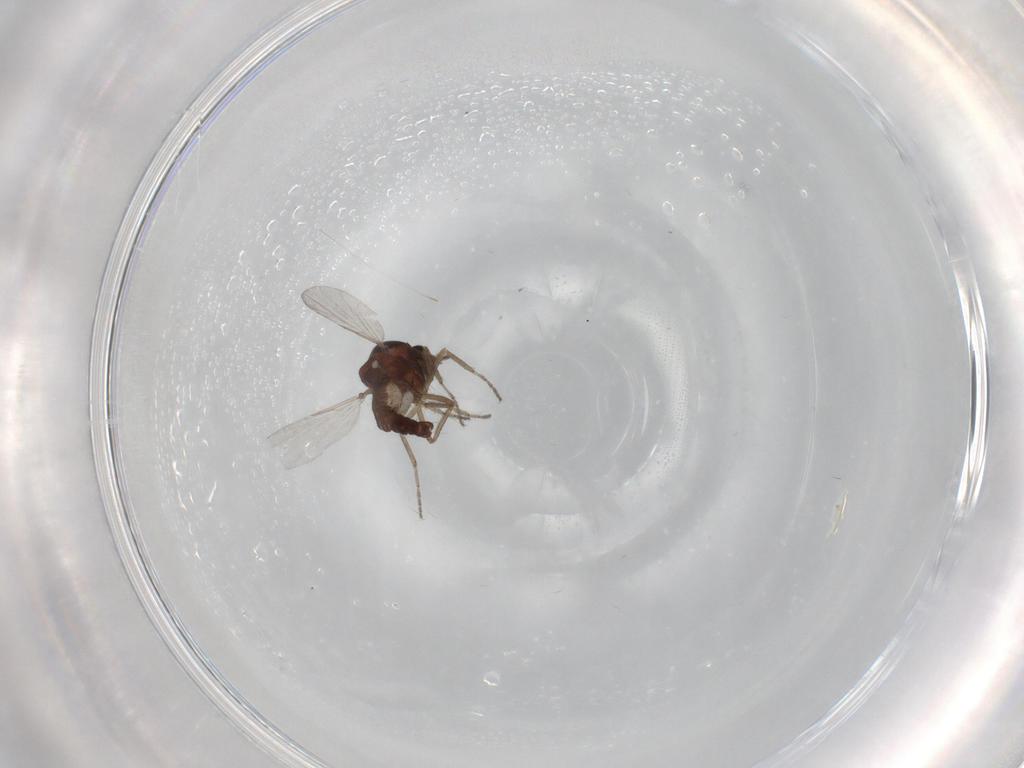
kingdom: Animalia
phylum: Arthropoda
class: Insecta
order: Diptera
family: Ceratopogonidae
